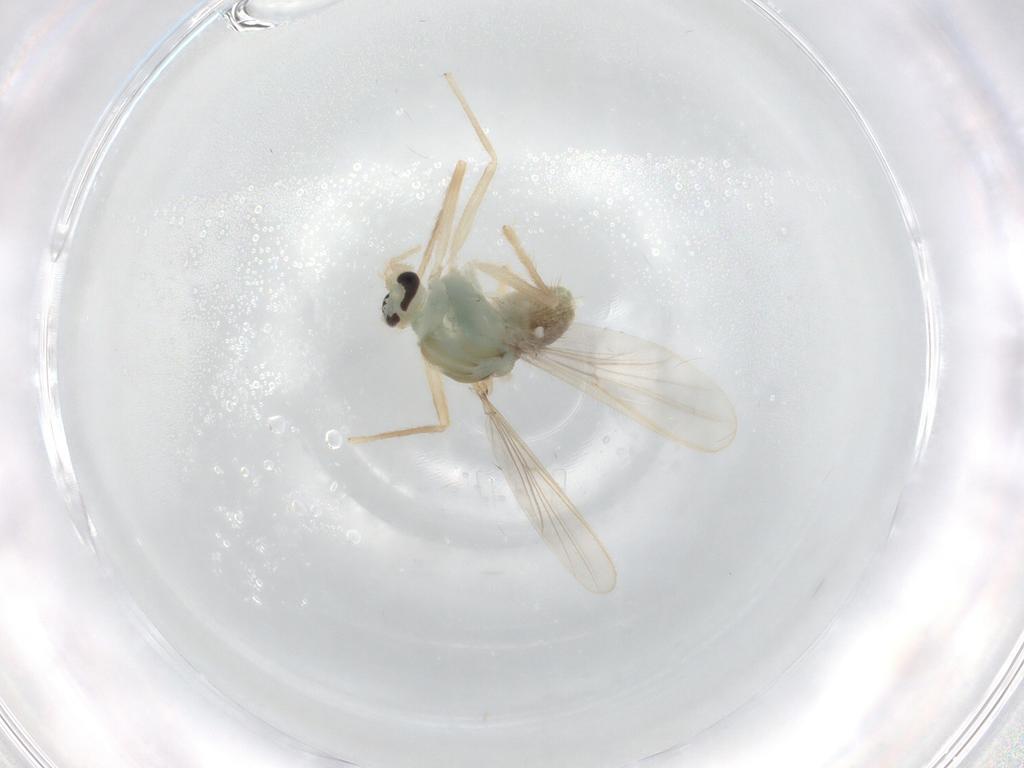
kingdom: Animalia
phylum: Arthropoda
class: Insecta
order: Diptera
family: Chironomidae
